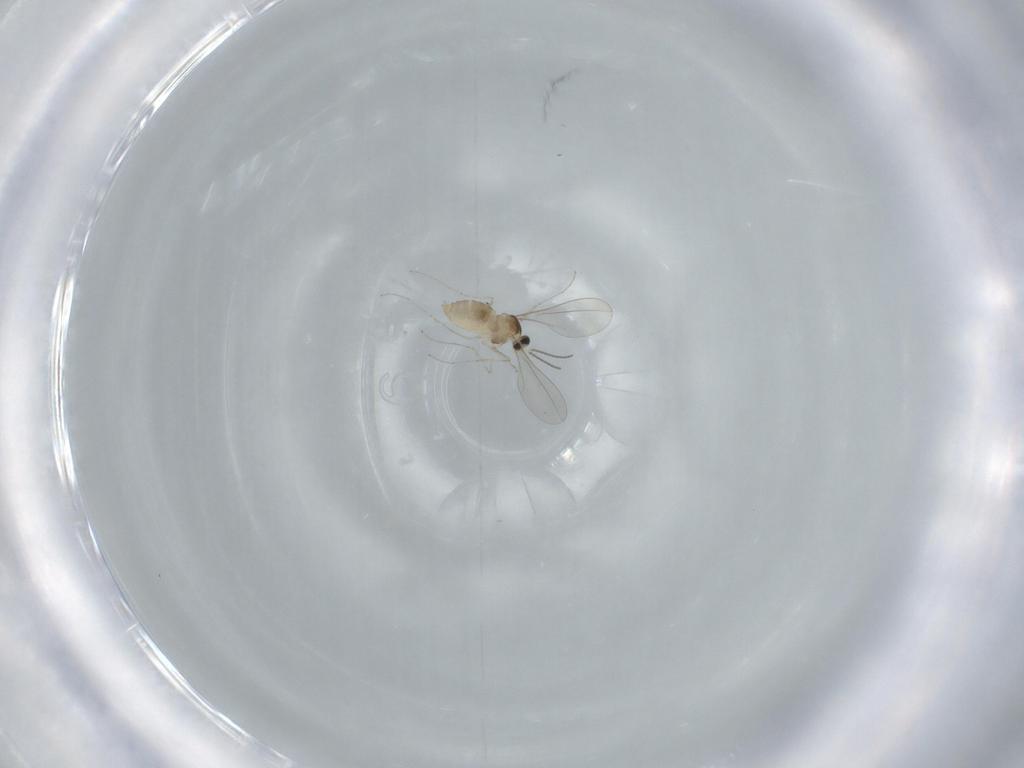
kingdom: Animalia
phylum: Arthropoda
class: Insecta
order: Diptera
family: Cecidomyiidae
